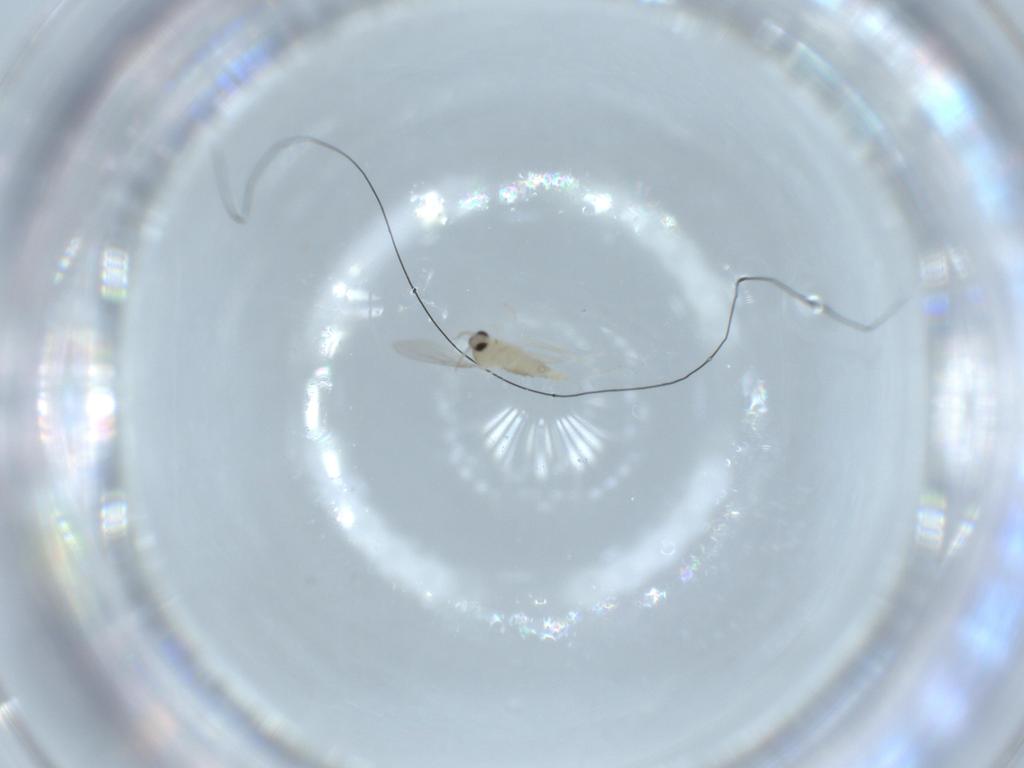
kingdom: Animalia
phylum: Arthropoda
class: Insecta
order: Diptera
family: Cecidomyiidae
